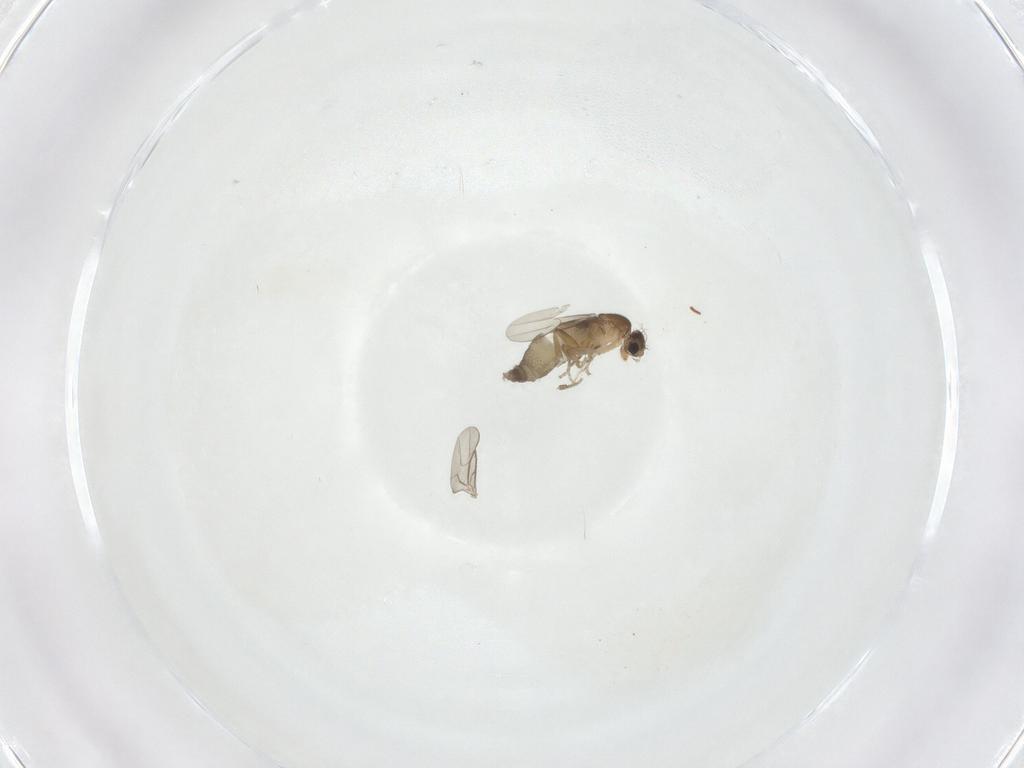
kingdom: Animalia
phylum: Arthropoda
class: Insecta
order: Diptera
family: Phoridae
